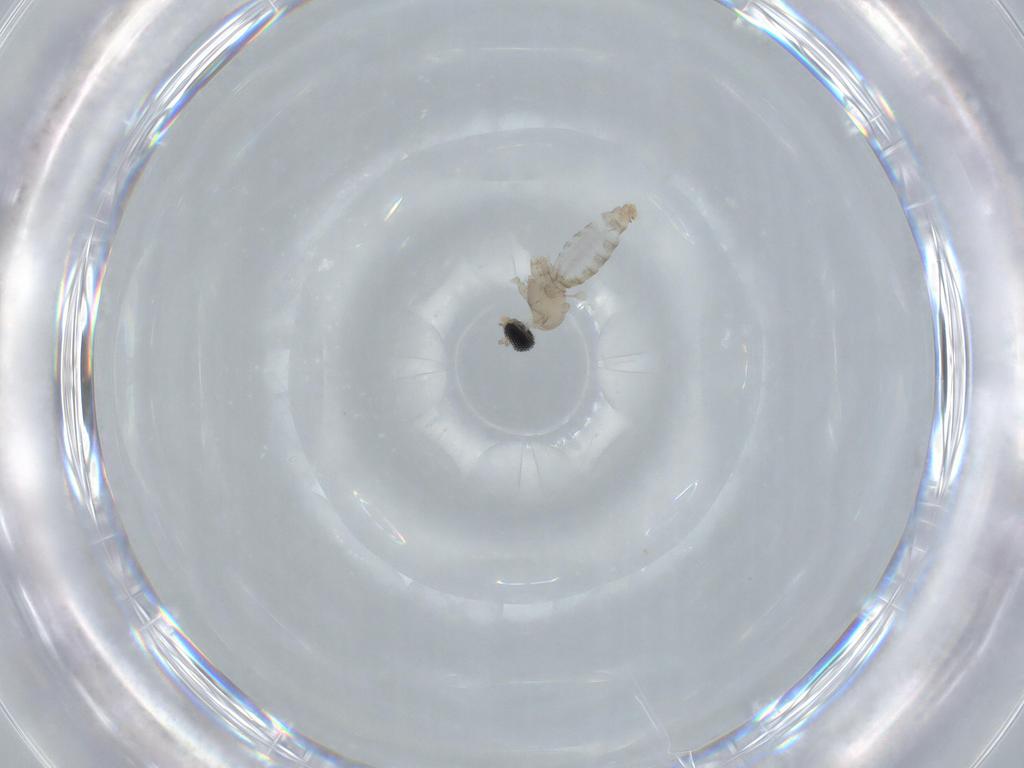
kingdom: Animalia
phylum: Arthropoda
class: Insecta
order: Diptera
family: Cecidomyiidae
